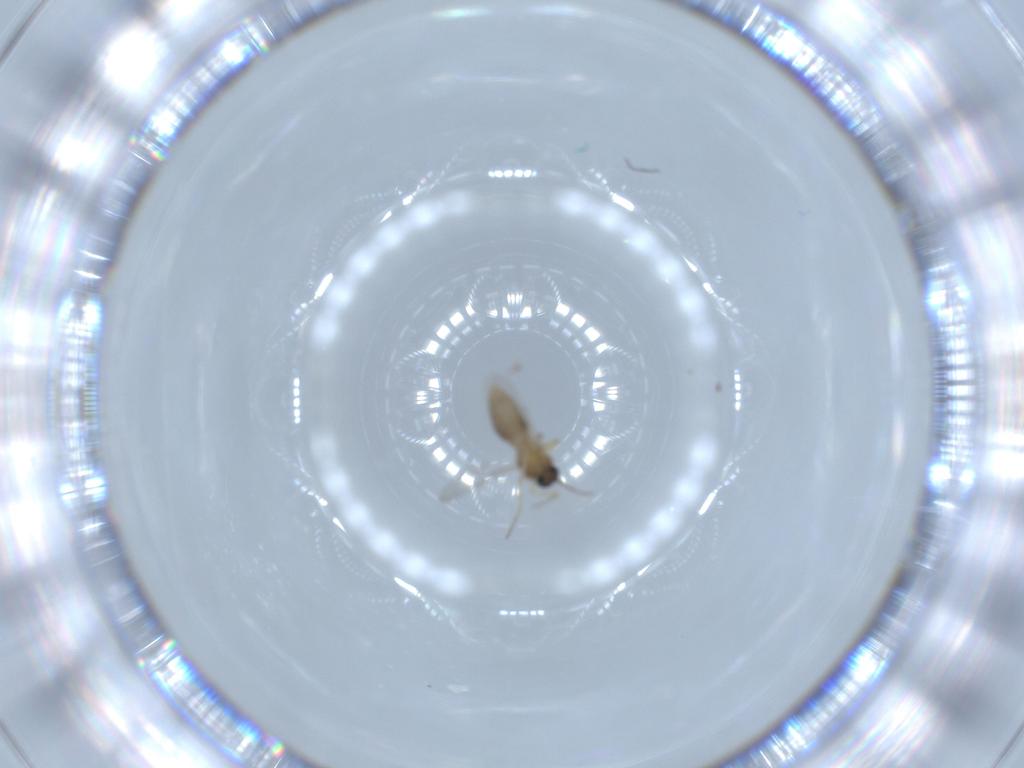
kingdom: Animalia
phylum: Arthropoda
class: Insecta
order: Diptera
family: Ceratopogonidae
